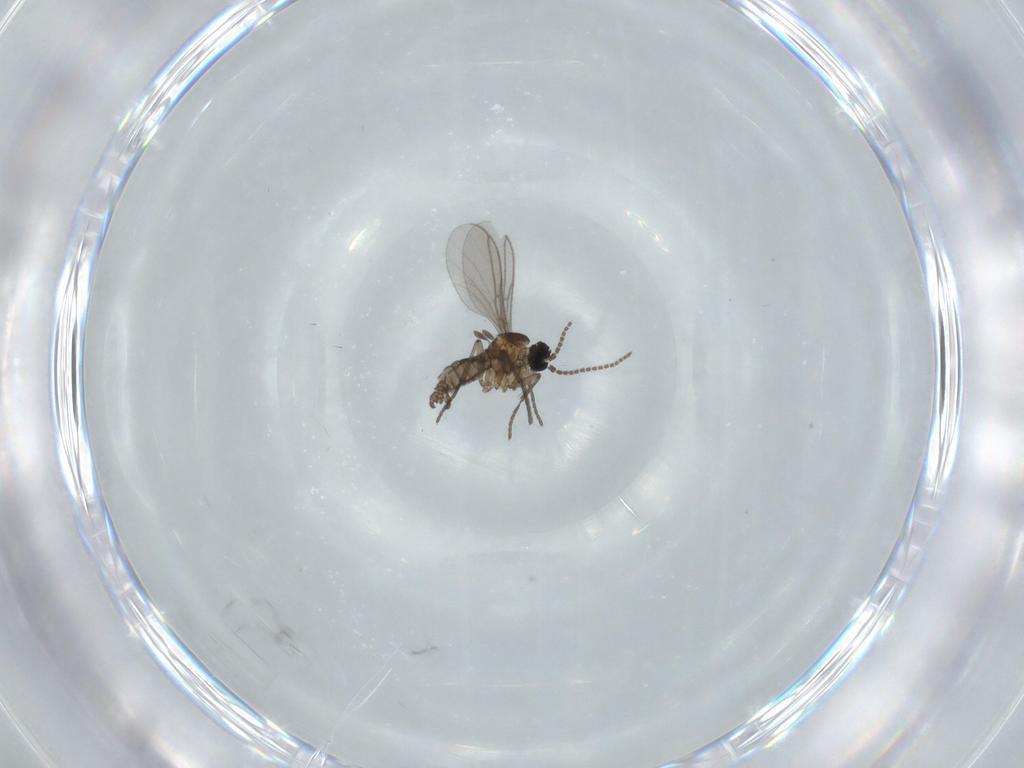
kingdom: Animalia
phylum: Arthropoda
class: Insecta
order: Diptera
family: Psychodidae
